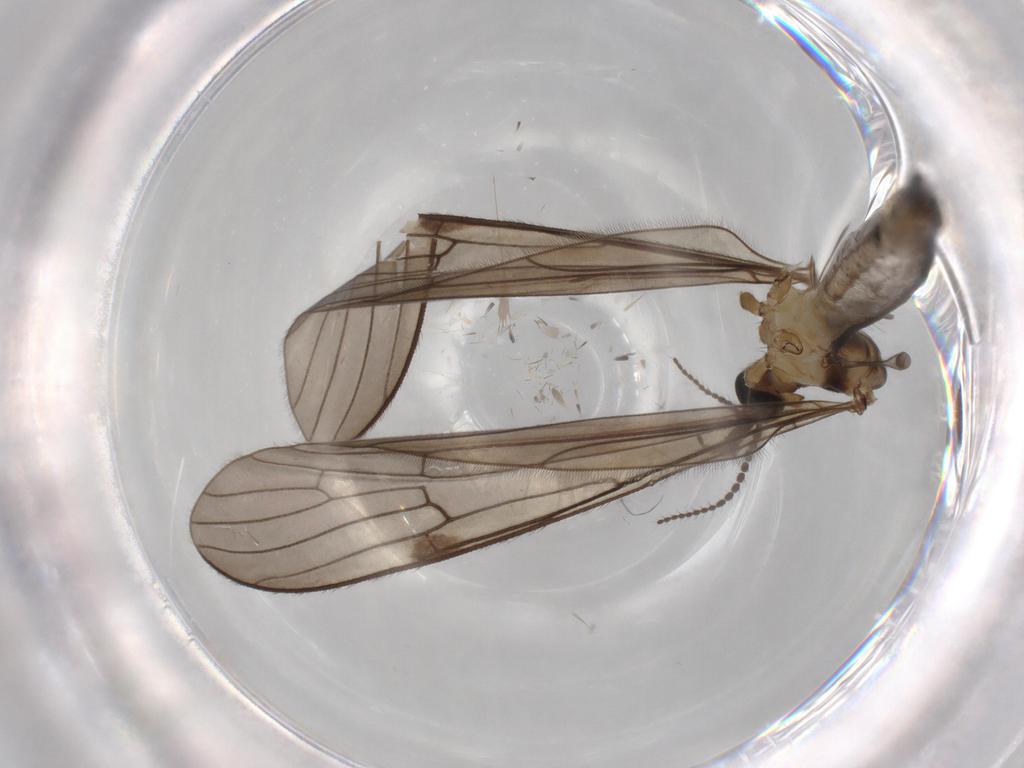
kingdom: Animalia
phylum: Arthropoda
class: Insecta
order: Diptera
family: Limoniidae
